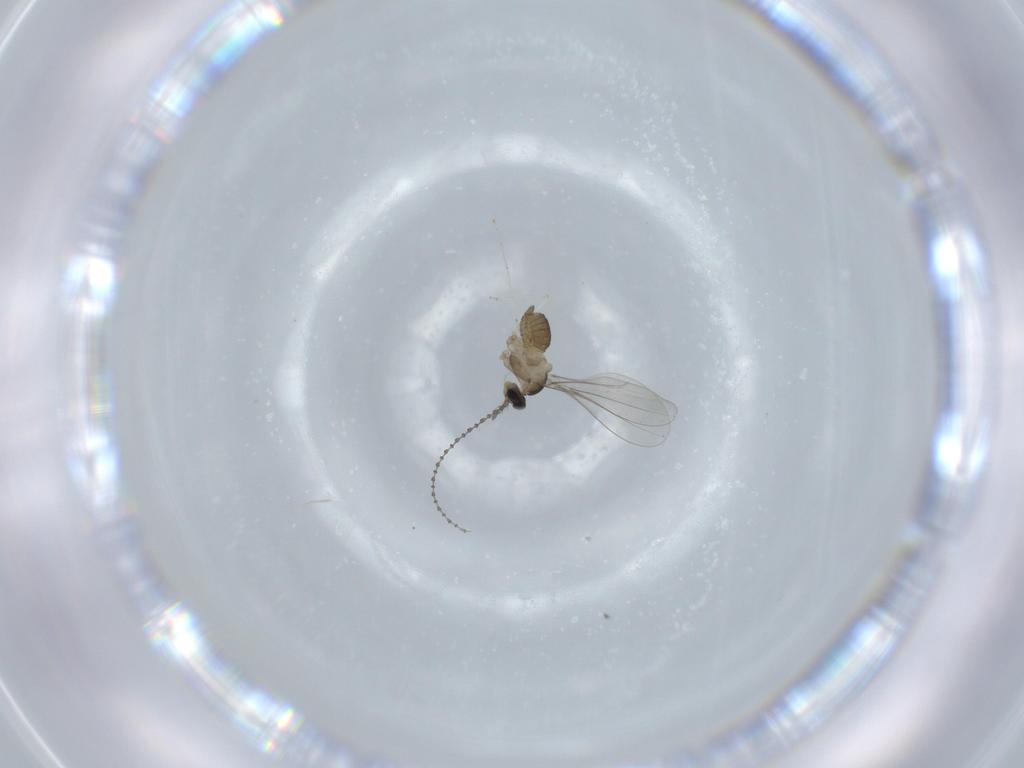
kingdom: Animalia
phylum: Arthropoda
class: Insecta
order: Diptera
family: Cecidomyiidae
